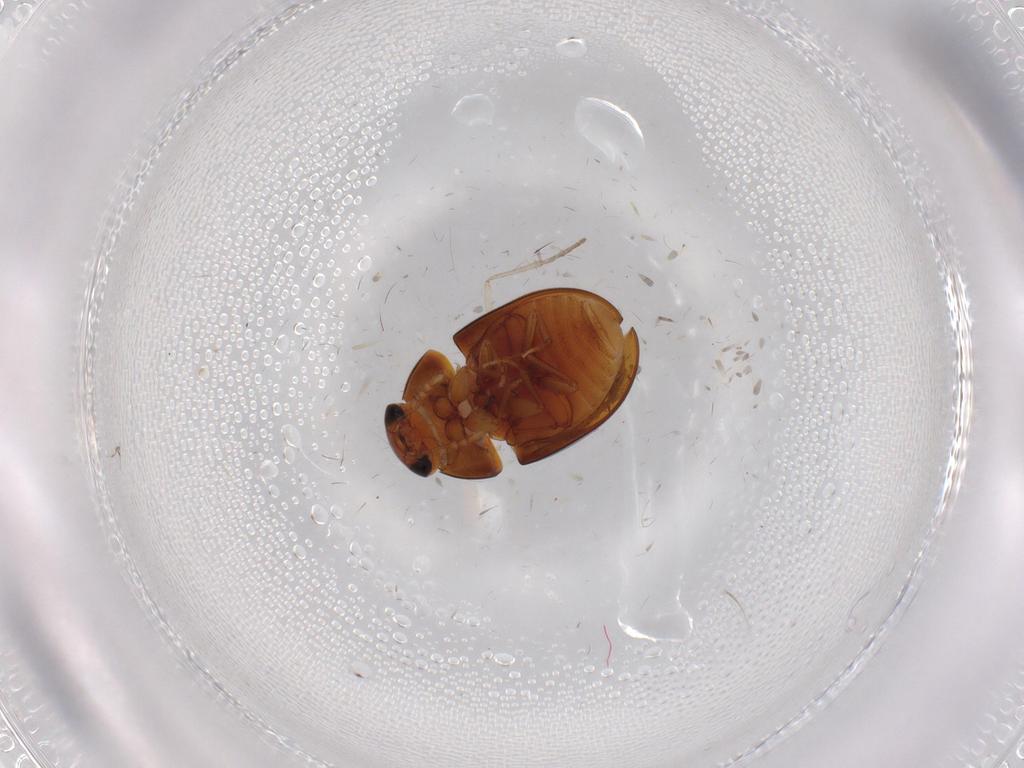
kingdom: Animalia
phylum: Arthropoda
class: Insecta
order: Coleoptera
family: Phalacridae
